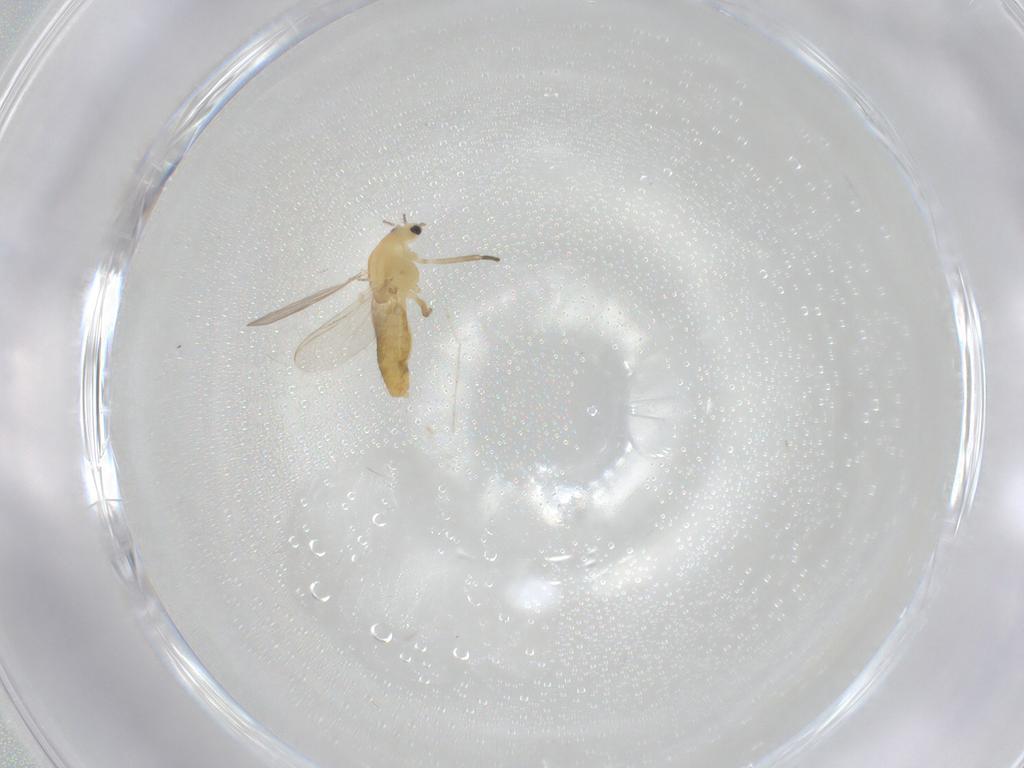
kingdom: Animalia
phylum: Arthropoda
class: Insecta
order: Diptera
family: Chironomidae
